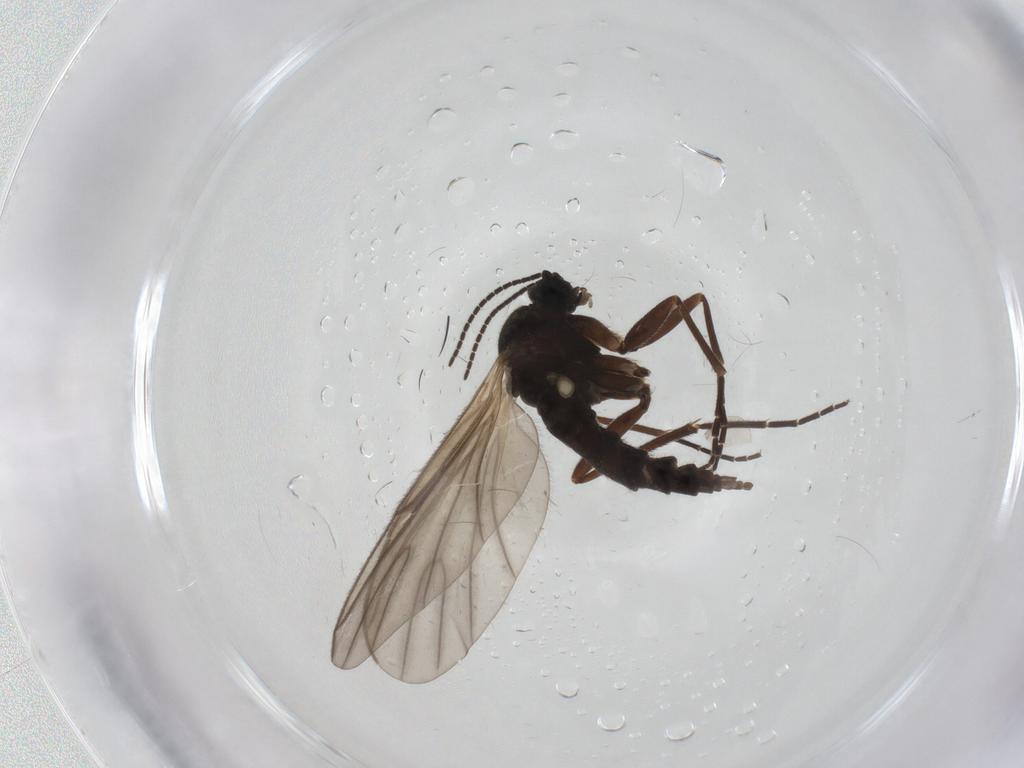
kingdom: Animalia
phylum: Arthropoda
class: Insecta
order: Diptera
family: Sciaridae
